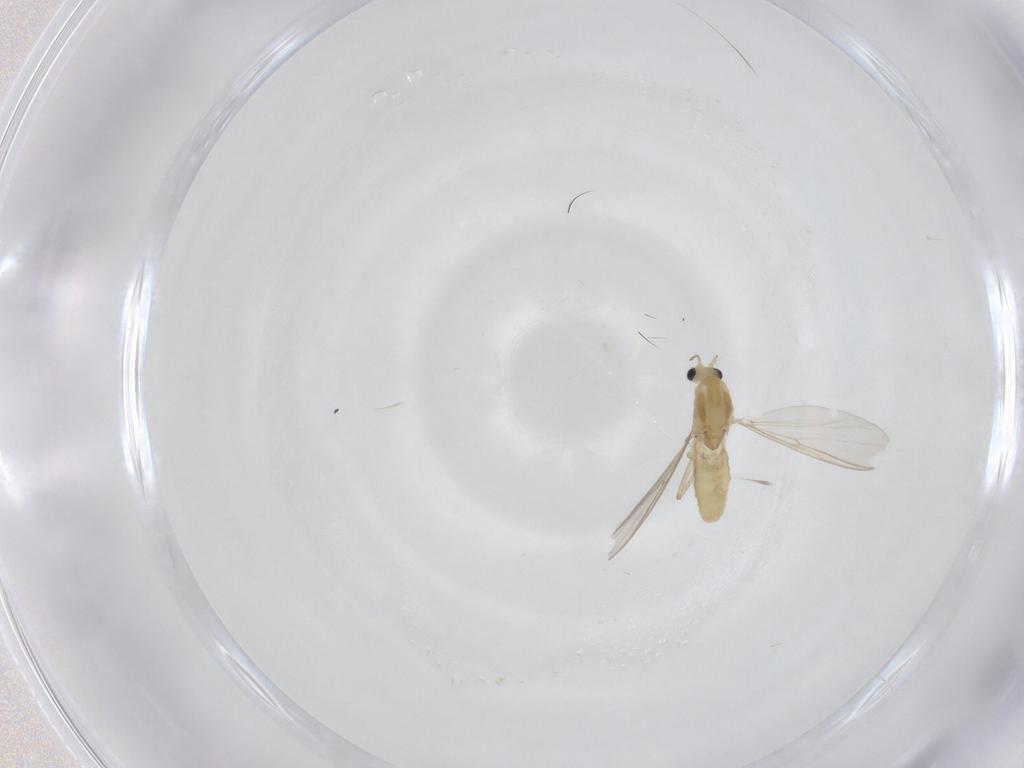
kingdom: Animalia
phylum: Arthropoda
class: Insecta
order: Diptera
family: Chironomidae
